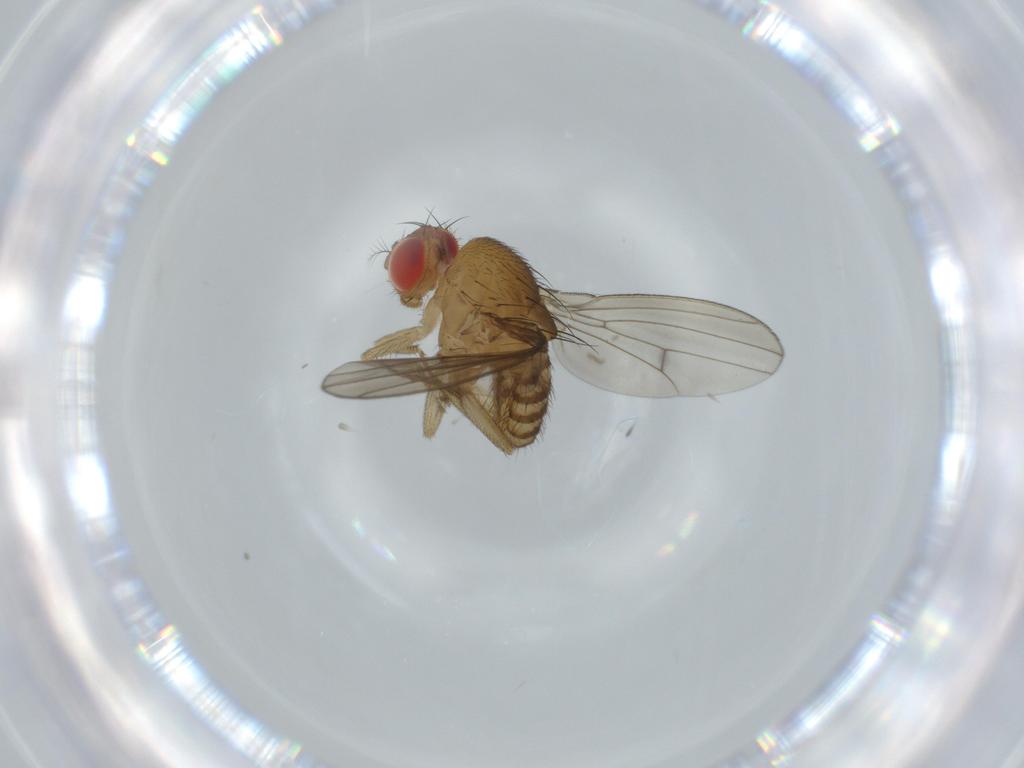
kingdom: Animalia
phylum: Arthropoda
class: Insecta
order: Diptera
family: Drosophilidae
